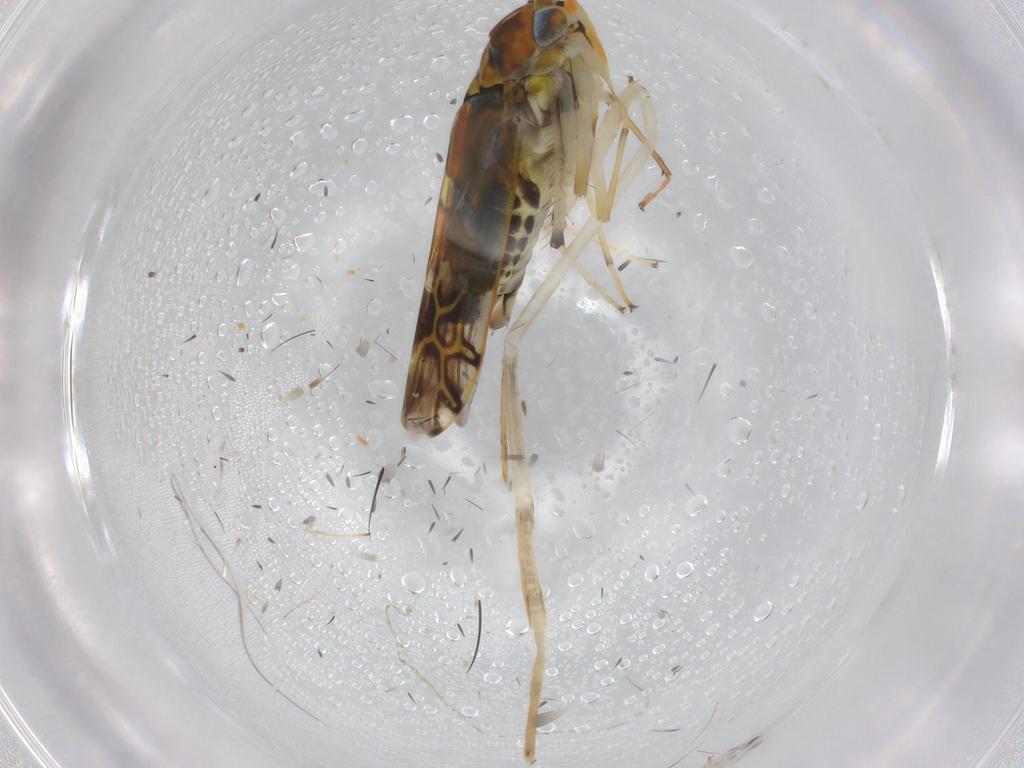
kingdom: Animalia
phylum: Arthropoda
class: Insecta
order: Hemiptera
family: Cicadellidae
